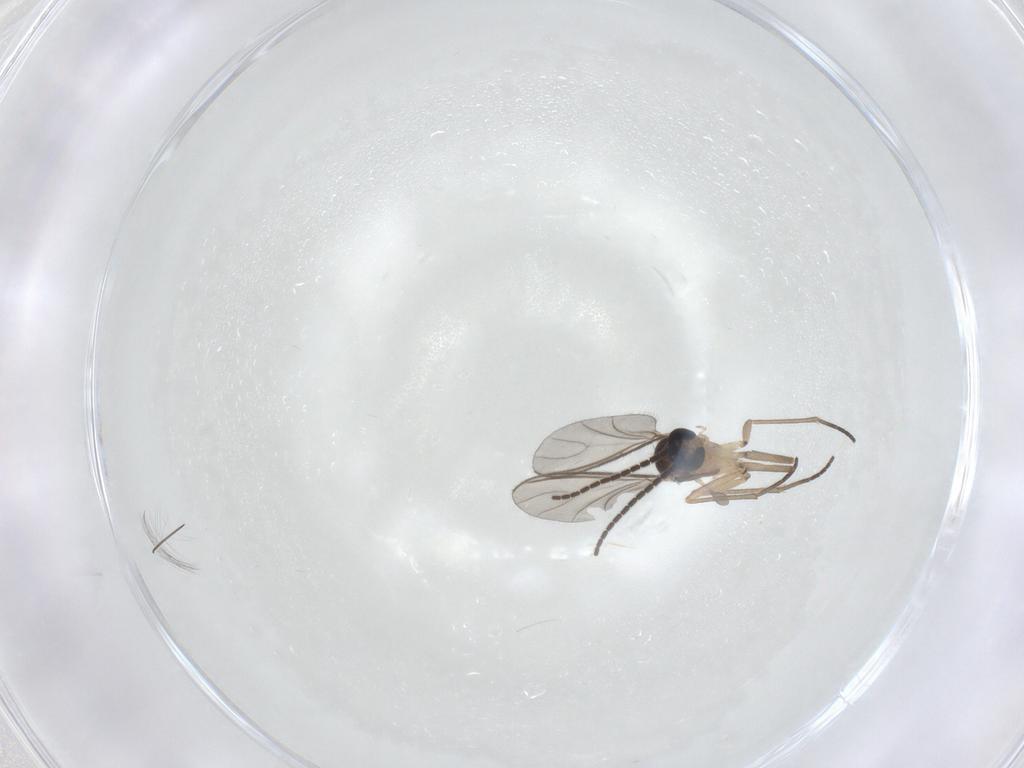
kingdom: Animalia
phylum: Arthropoda
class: Insecta
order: Diptera
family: Sciaridae
